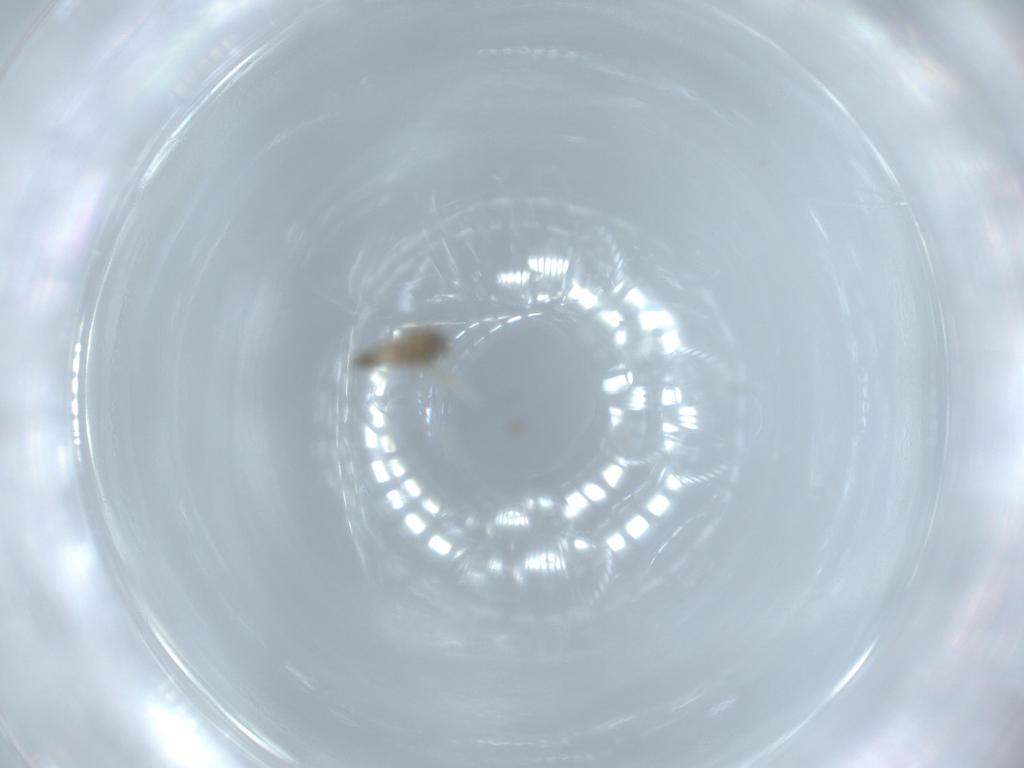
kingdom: Animalia
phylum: Arthropoda
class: Insecta
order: Diptera
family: Cecidomyiidae
